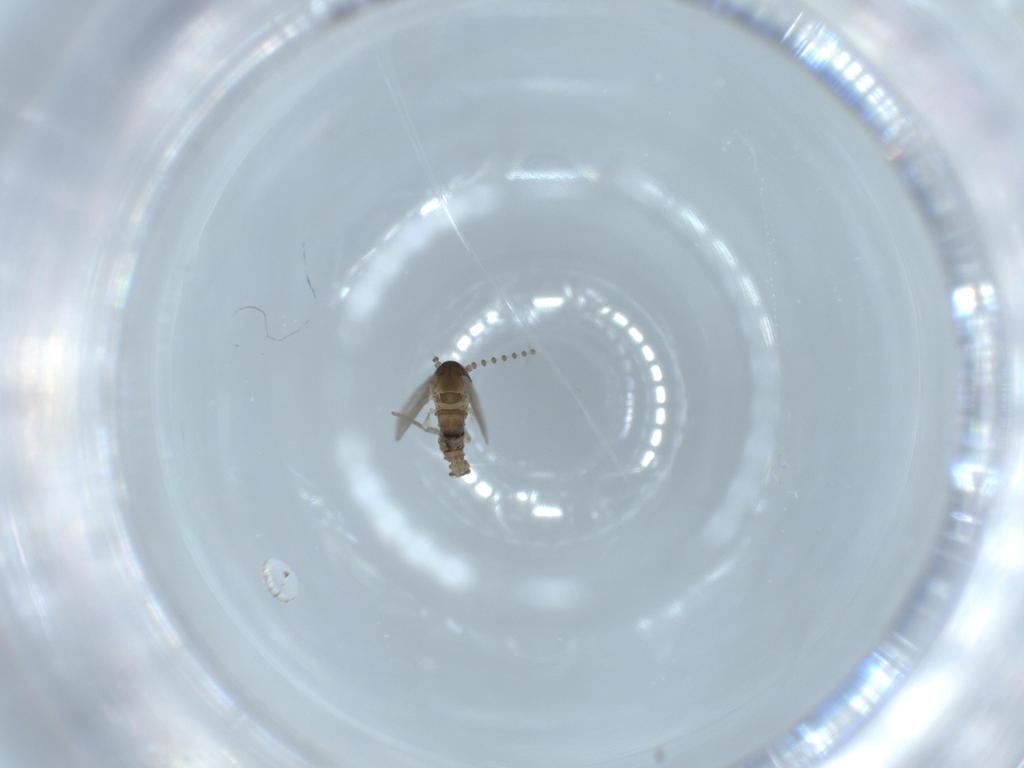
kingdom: Animalia
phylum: Arthropoda
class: Insecta
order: Diptera
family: Psychodidae
